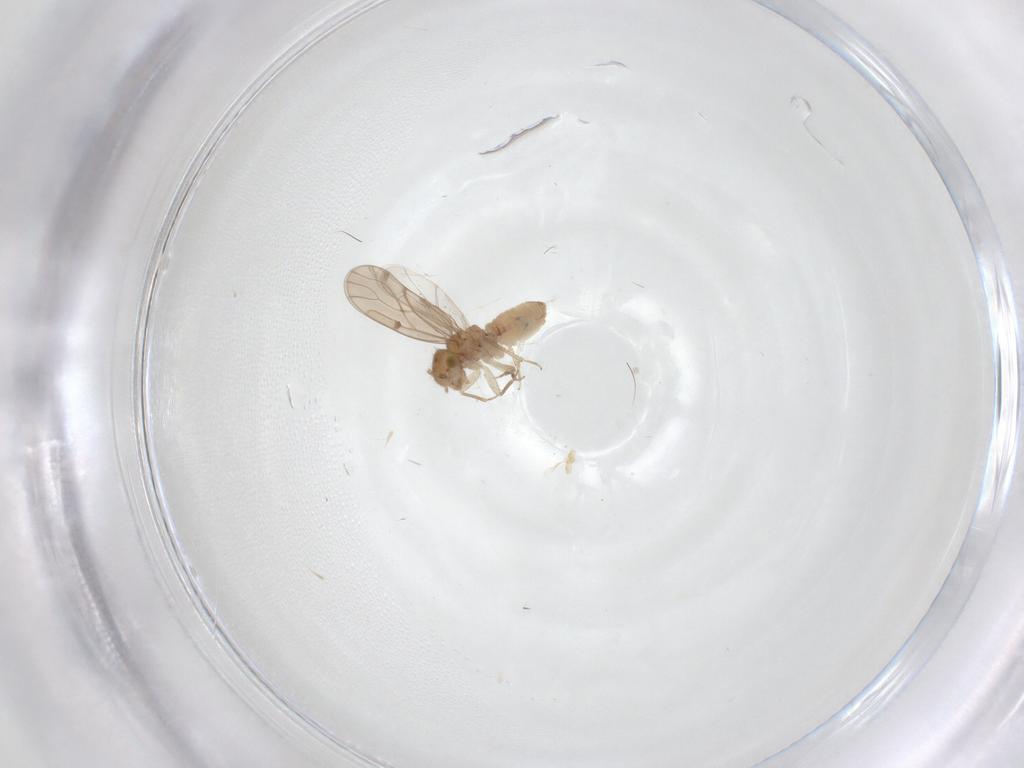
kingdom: Animalia
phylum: Arthropoda
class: Insecta
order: Psocodea
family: Ectopsocidae
